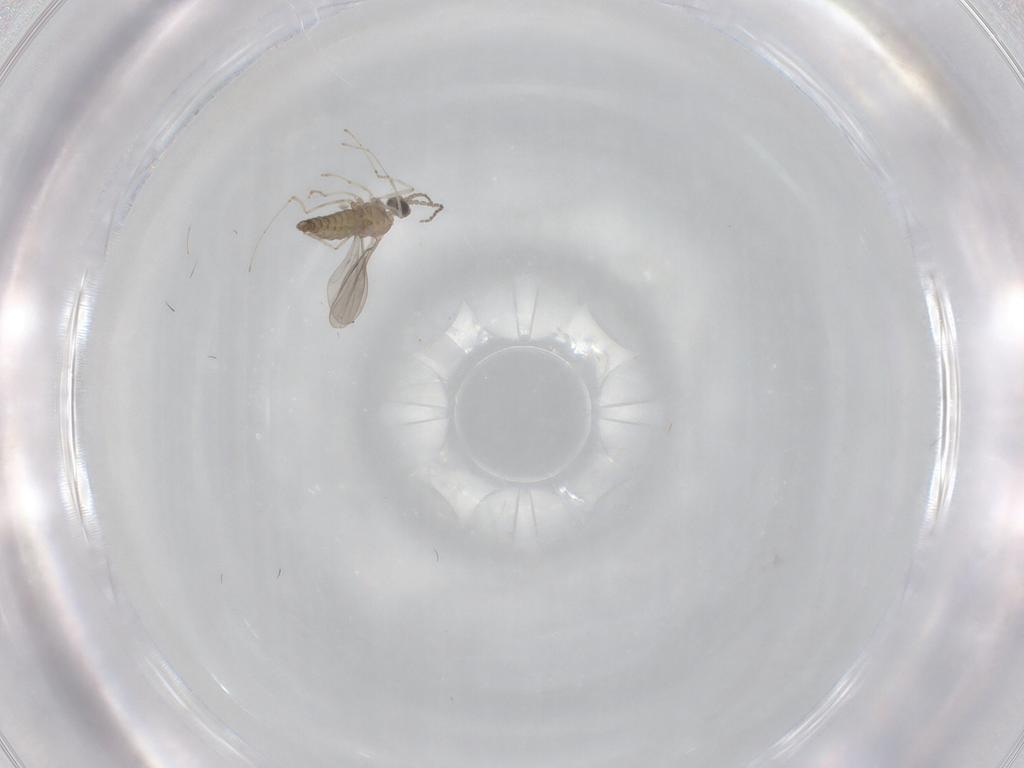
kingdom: Animalia
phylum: Arthropoda
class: Insecta
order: Diptera
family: Cecidomyiidae
